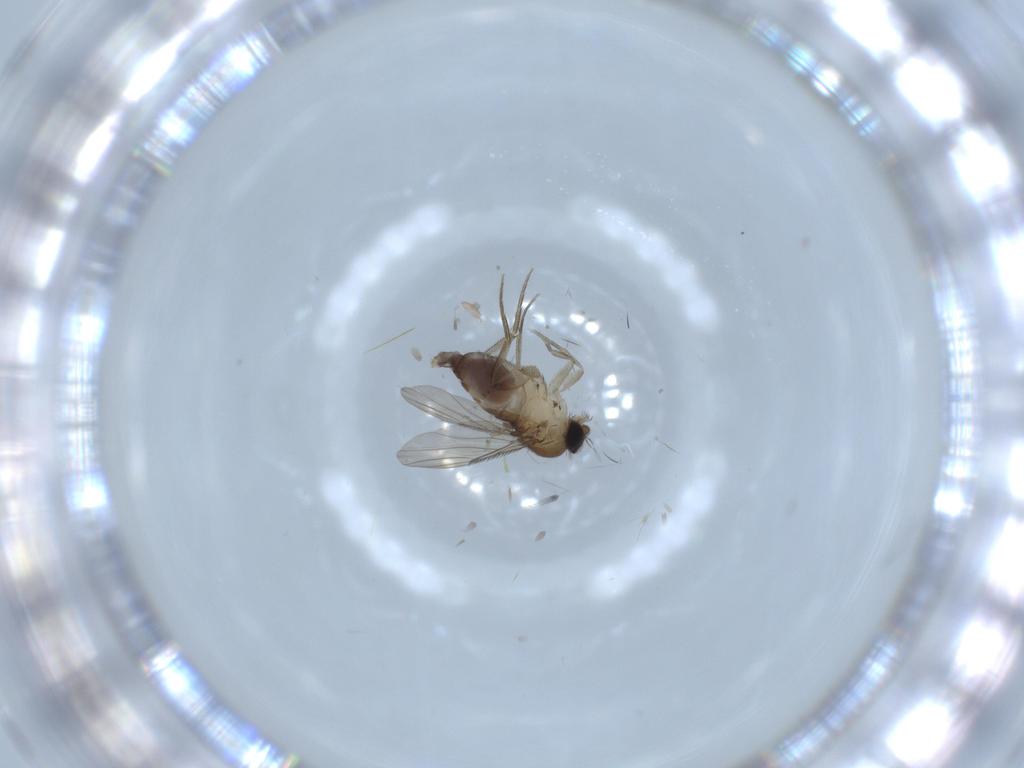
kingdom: Animalia
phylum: Arthropoda
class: Insecta
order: Diptera
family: Phoridae
